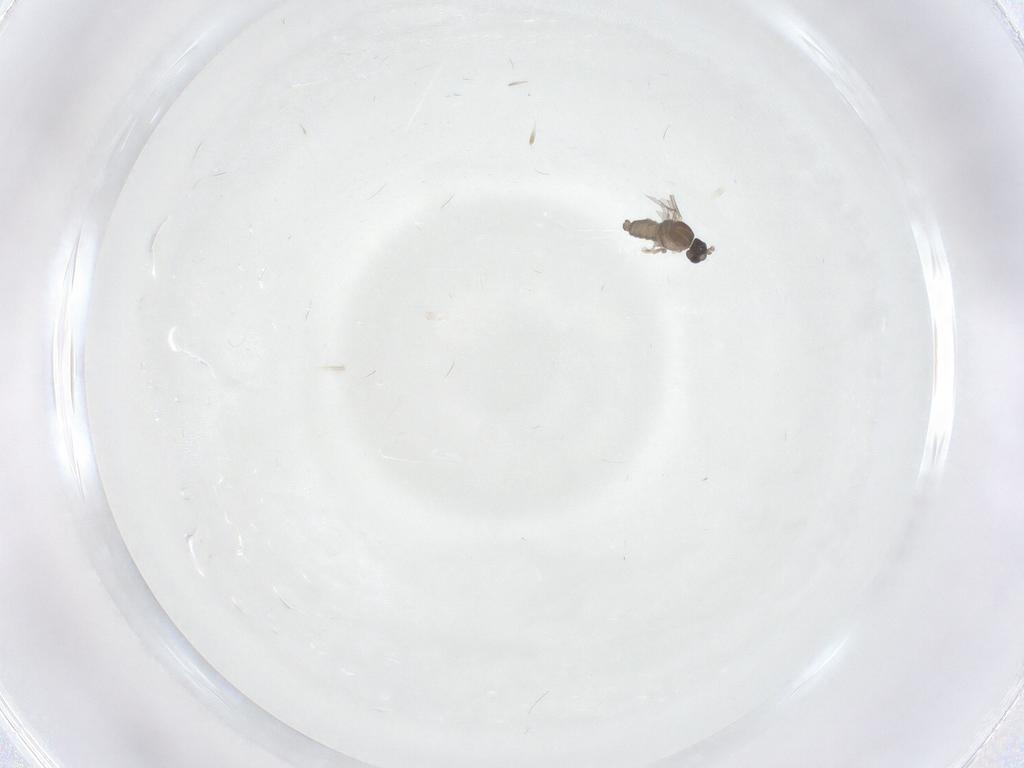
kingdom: Animalia
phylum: Arthropoda
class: Insecta
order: Diptera
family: Psychodidae
